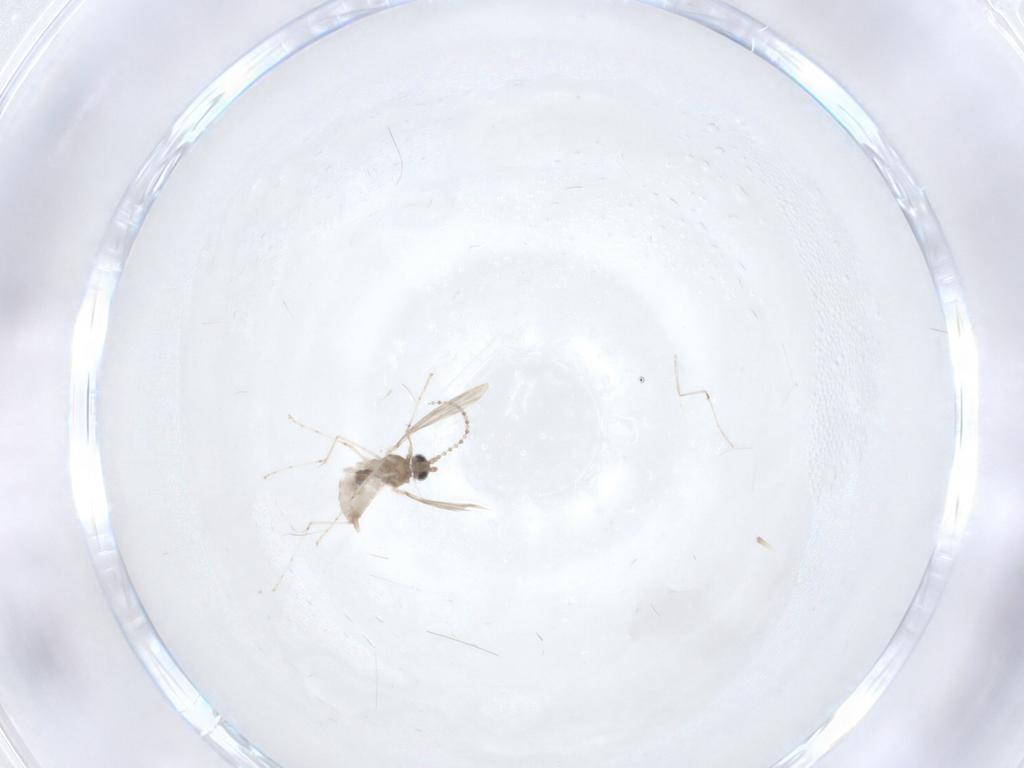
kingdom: Animalia
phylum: Arthropoda
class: Insecta
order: Diptera
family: Cecidomyiidae
